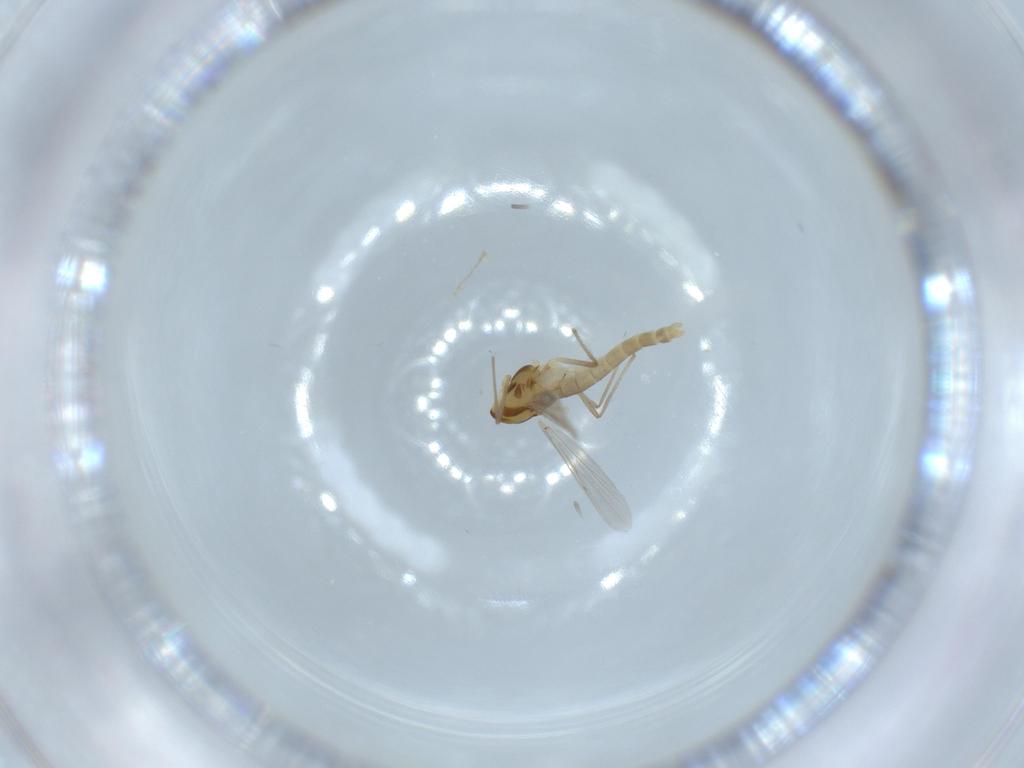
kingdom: Animalia
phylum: Arthropoda
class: Insecta
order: Diptera
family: Chironomidae
